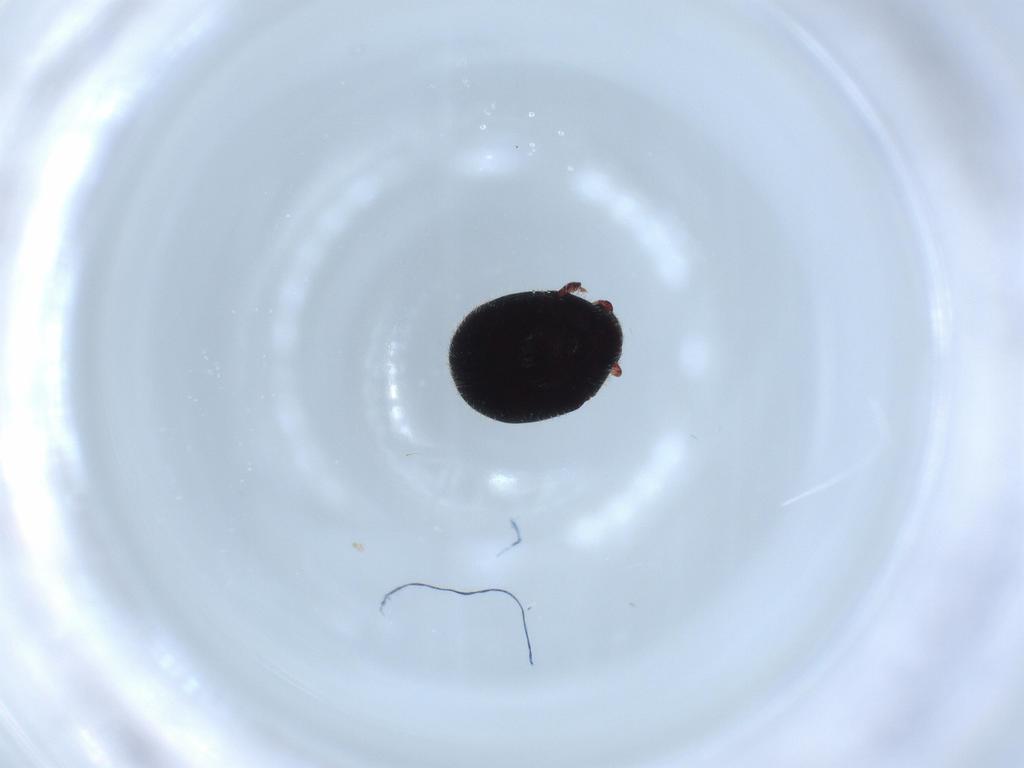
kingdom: Animalia
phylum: Arthropoda
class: Insecta
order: Coleoptera
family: Ptinidae
